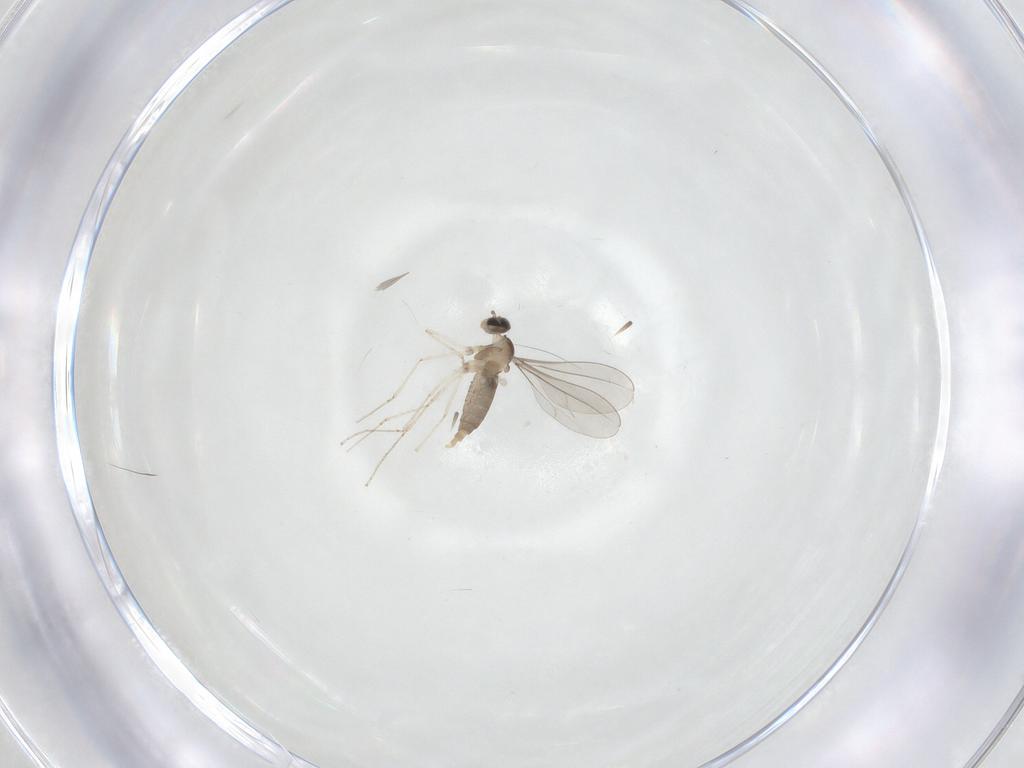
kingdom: Animalia
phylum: Arthropoda
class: Insecta
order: Diptera
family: Cecidomyiidae
